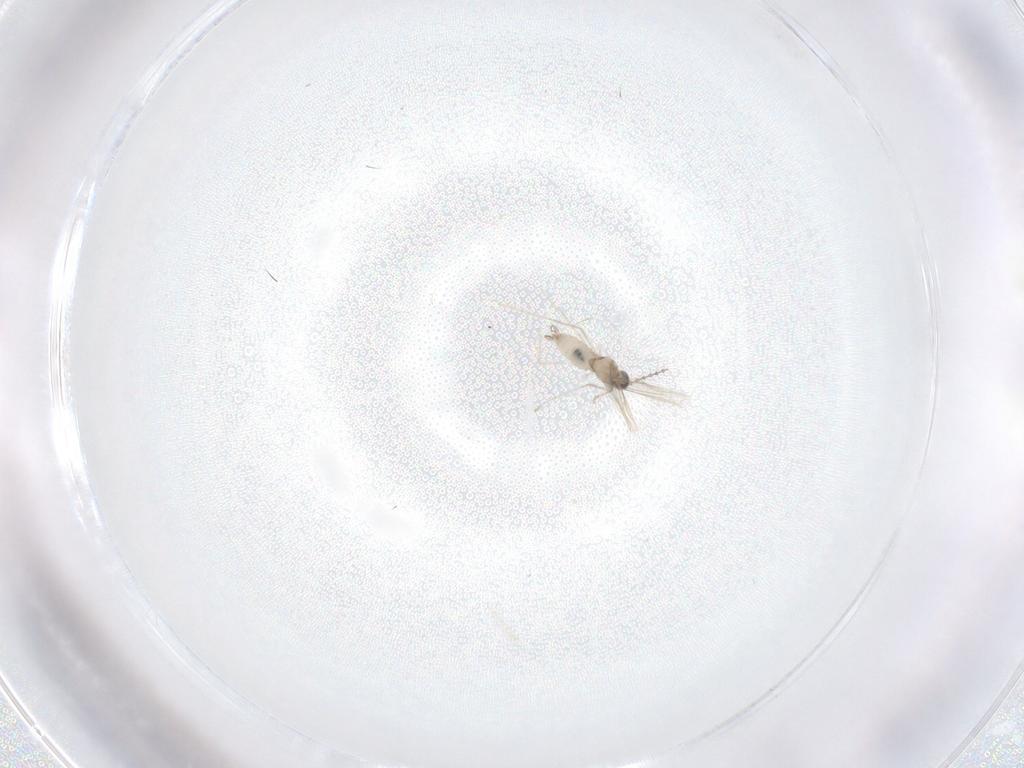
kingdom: Animalia
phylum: Arthropoda
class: Insecta
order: Diptera
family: Cecidomyiidae
